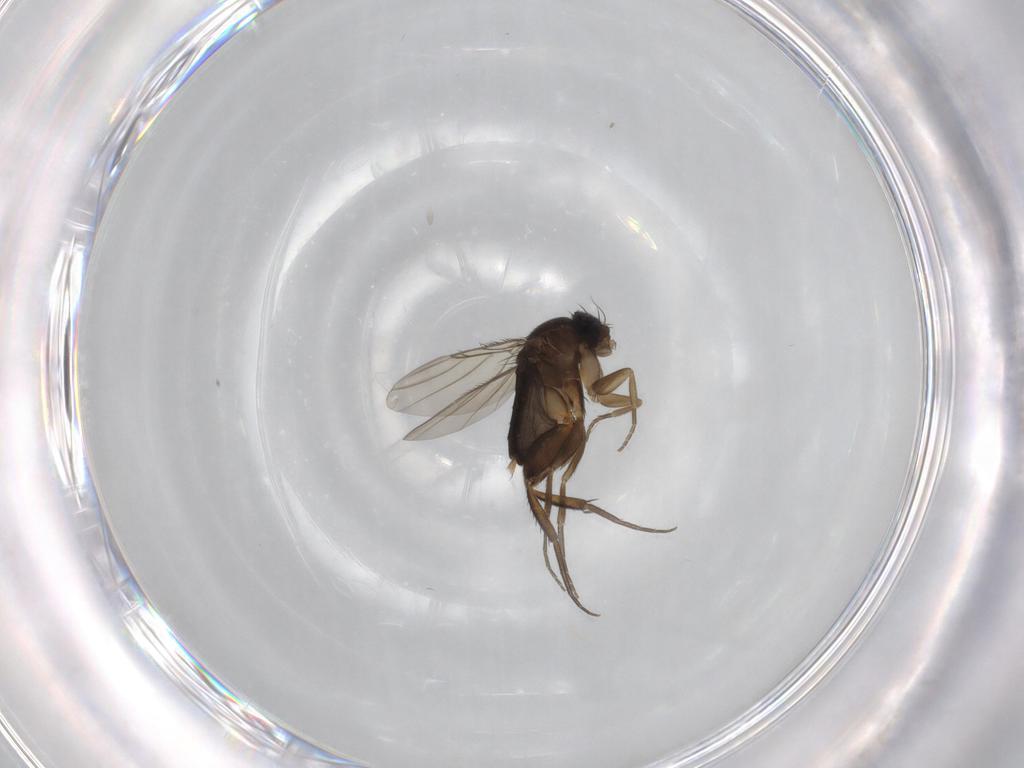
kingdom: Animalia
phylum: Arthropoda
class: Insecta
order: Diptera
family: Phoridae
